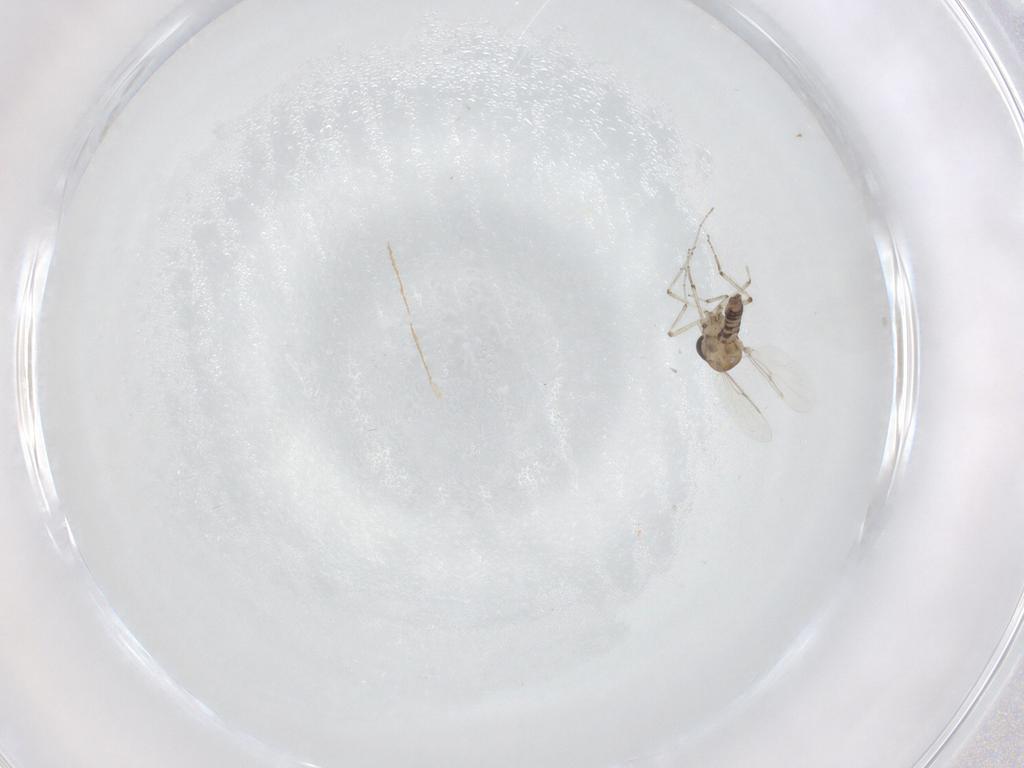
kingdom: Animalia
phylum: Arthropoda
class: Insecta
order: Diptera
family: Ceratopogonidae
